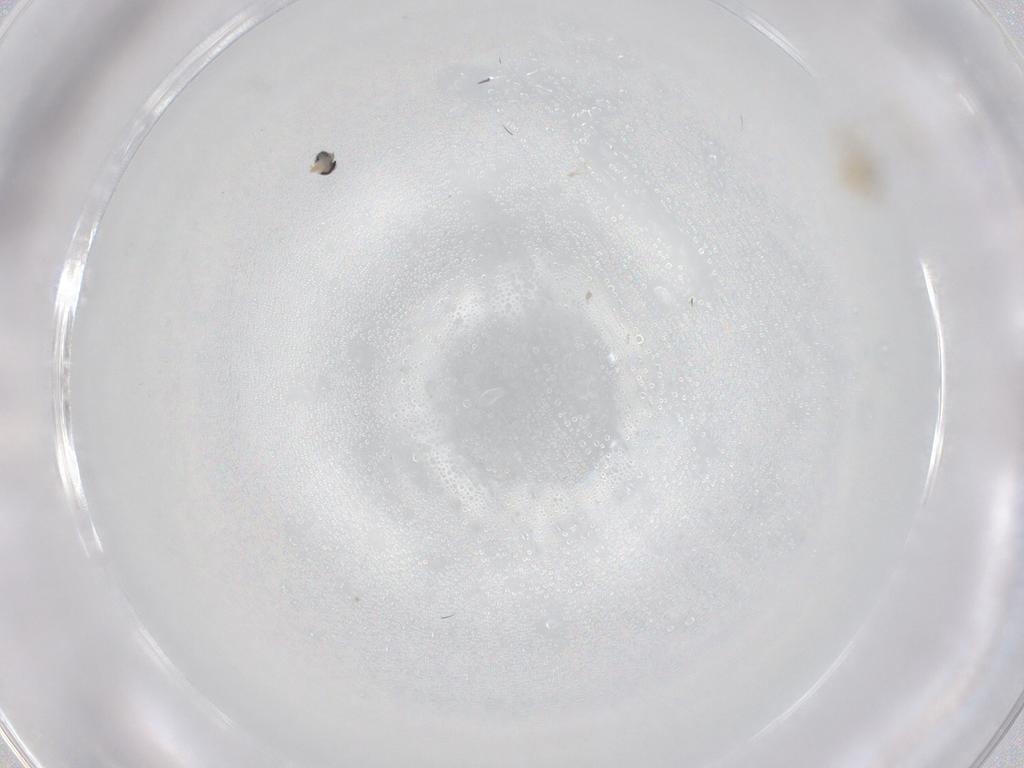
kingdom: Animalia
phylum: Arthropoda
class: Insecta
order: Diptera
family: Cecidomyiidae
